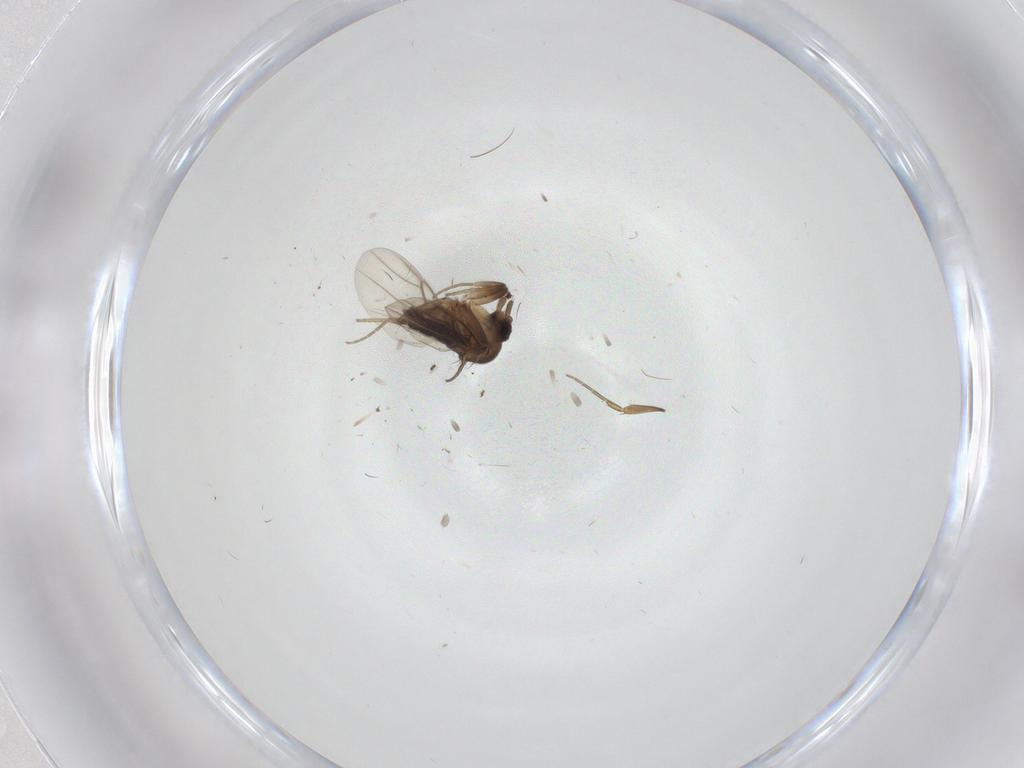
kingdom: Animalia
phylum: Arthropoda
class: Insecta
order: Diptera
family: Phoridae
